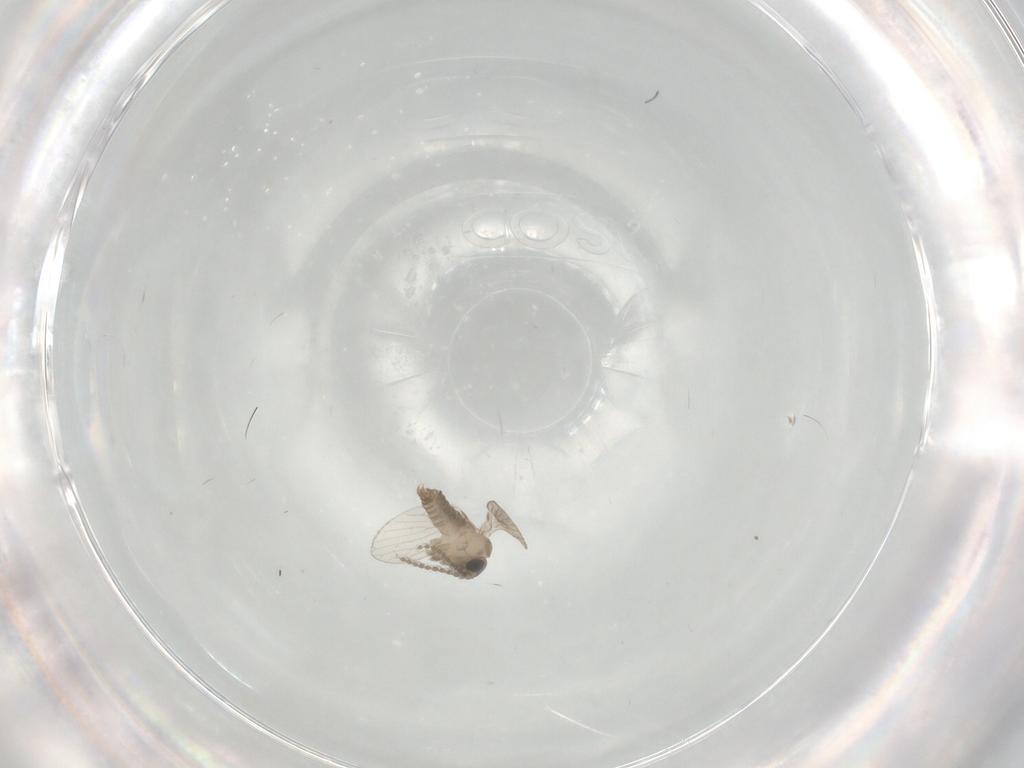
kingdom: Animalia
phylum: Arthropoda
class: Insecta
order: Diptera
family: Psychodidae
